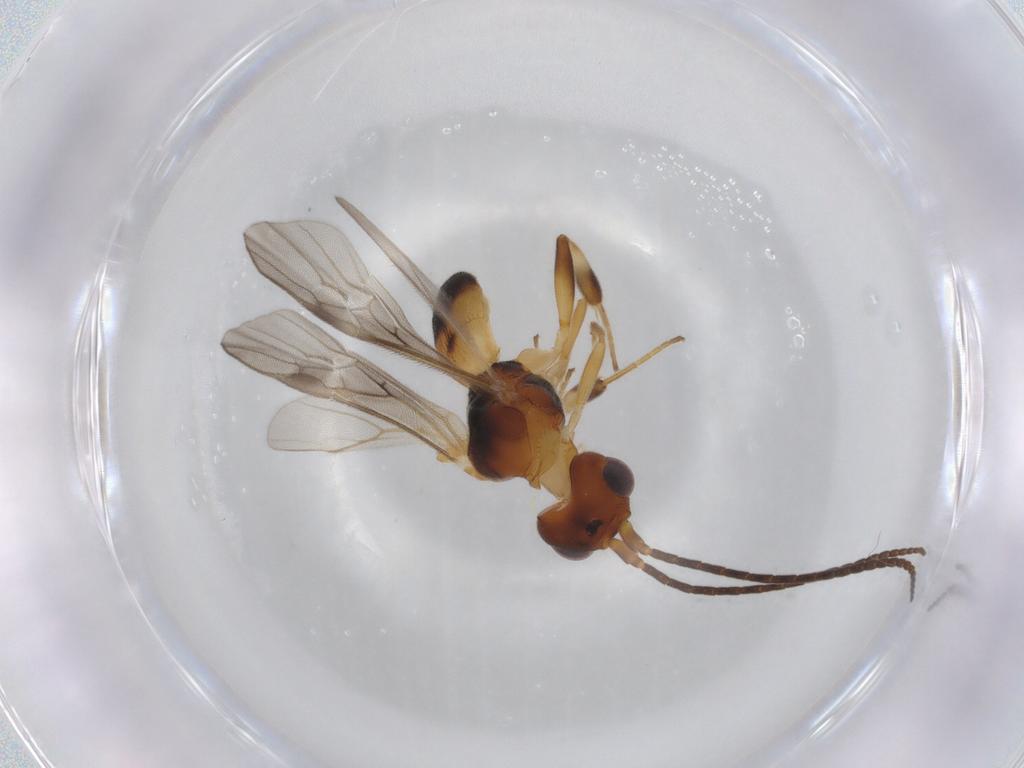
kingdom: Animalia
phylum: Arthropoda
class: Insecta
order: Hymenoptera
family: Braconidae
